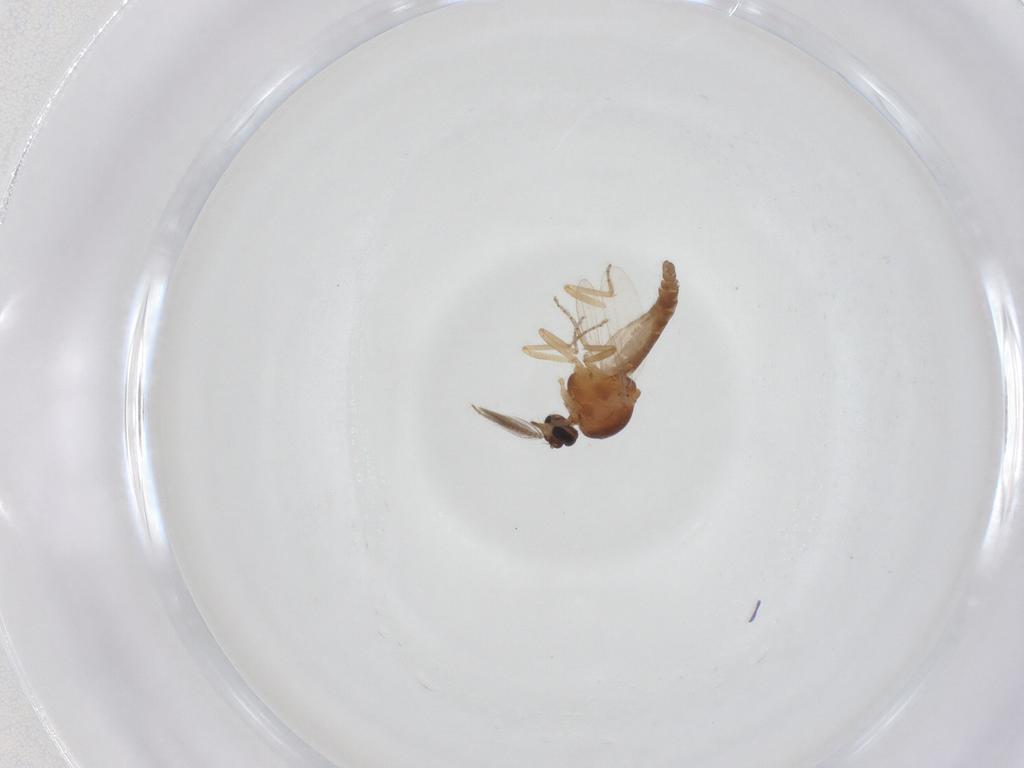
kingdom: Animalia
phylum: Arthropoda
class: Insecta
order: Diptera
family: Ceratopogonidae
